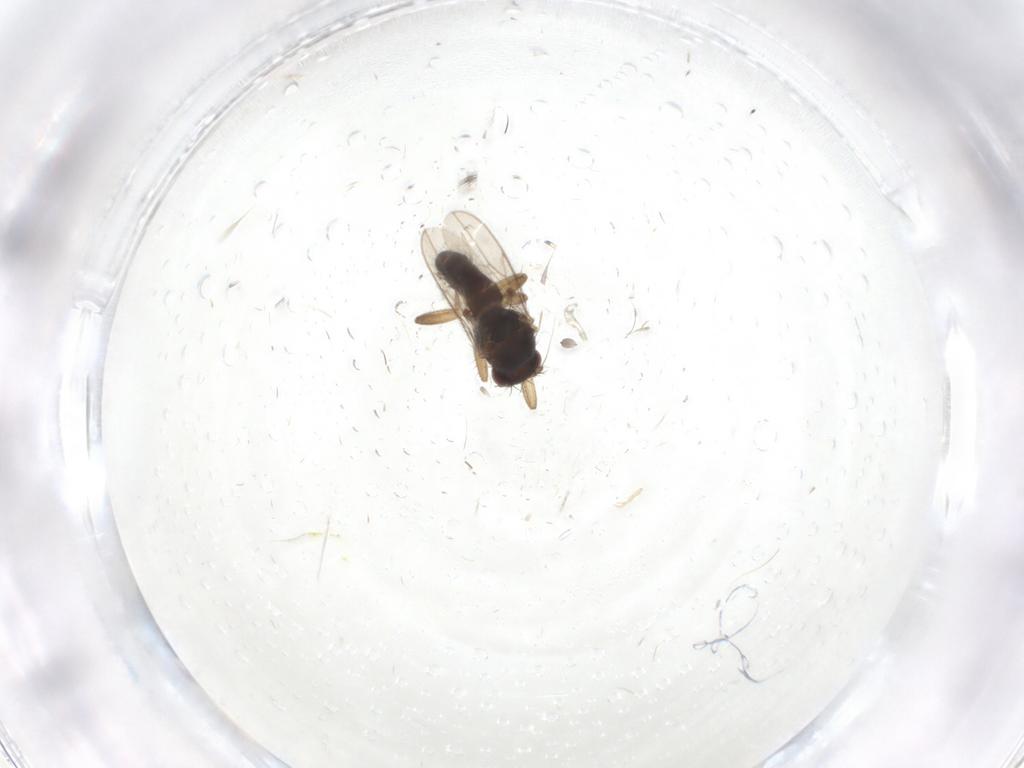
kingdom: Animalia
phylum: Arthropoda
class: Insecta
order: Diptera
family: Sphaeroceridae
